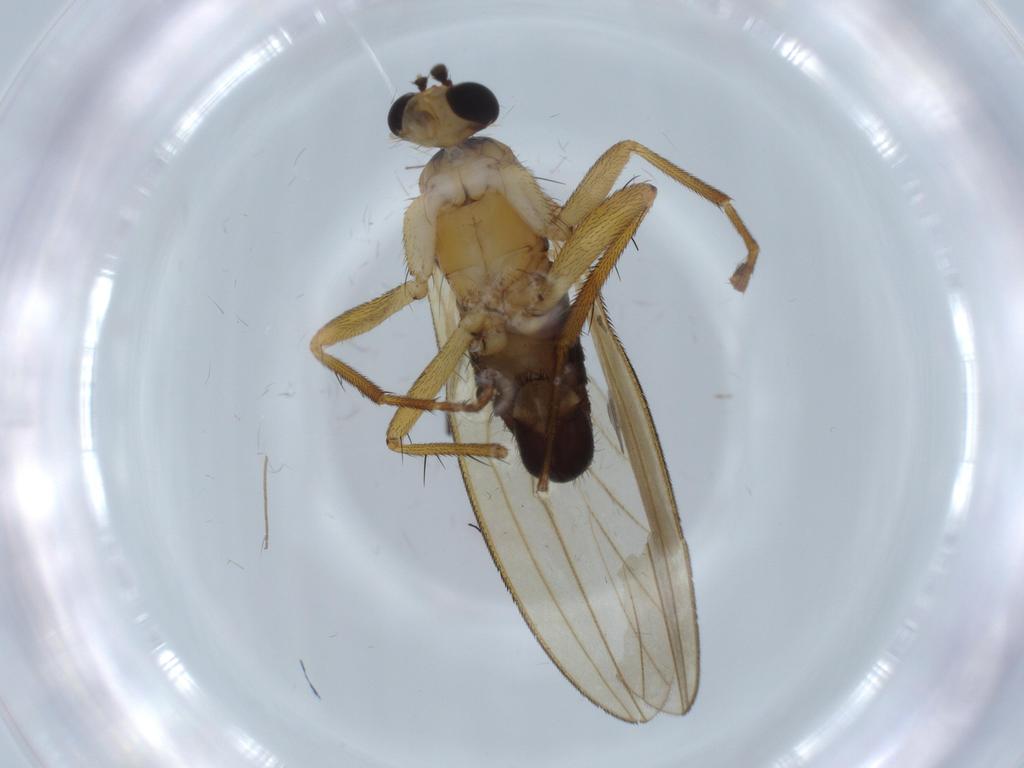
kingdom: Animalia
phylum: Arthropoda
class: Insecta
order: Diptera
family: Lonchopteridae
